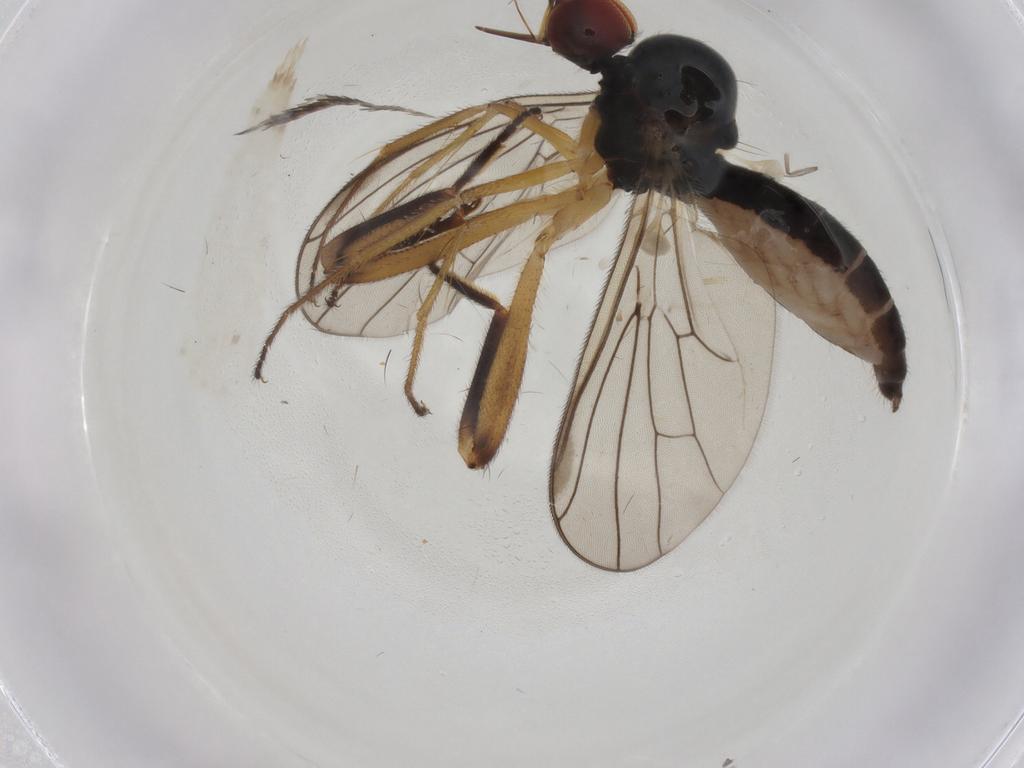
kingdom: Animalia
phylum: Arthropoda
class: Insecta
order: Diptera
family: Hybotidae
